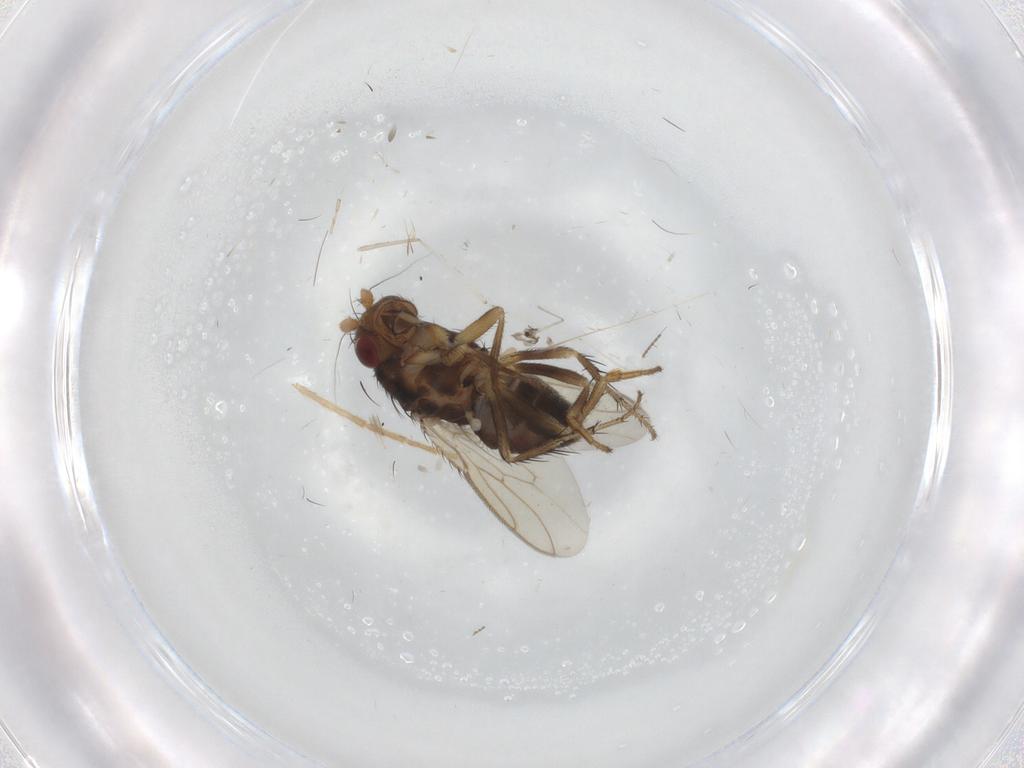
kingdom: Animalia
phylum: Arthropoda
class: Insecta
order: Diptera
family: Sphaeroceridae
